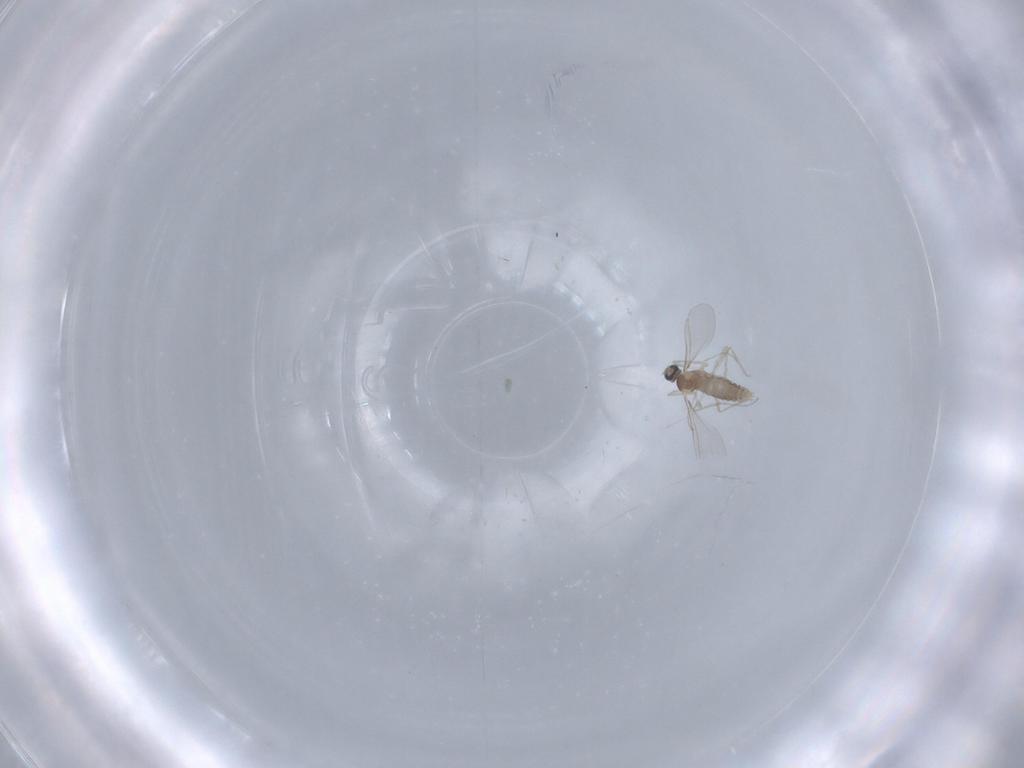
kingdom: Animalia
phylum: Arthropoda
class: Insecta
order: Diptera
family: Cecidomyiidae
